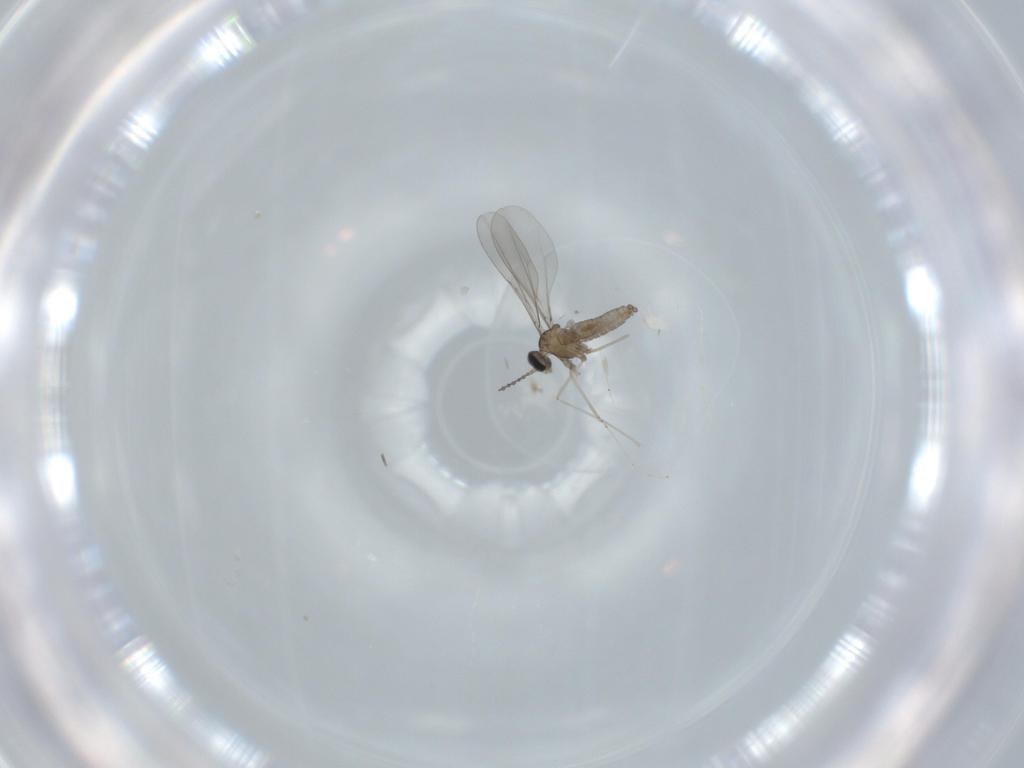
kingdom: Animalia
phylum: Arthropoda
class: Insecta
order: Diptera
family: Cecidomyiidae
